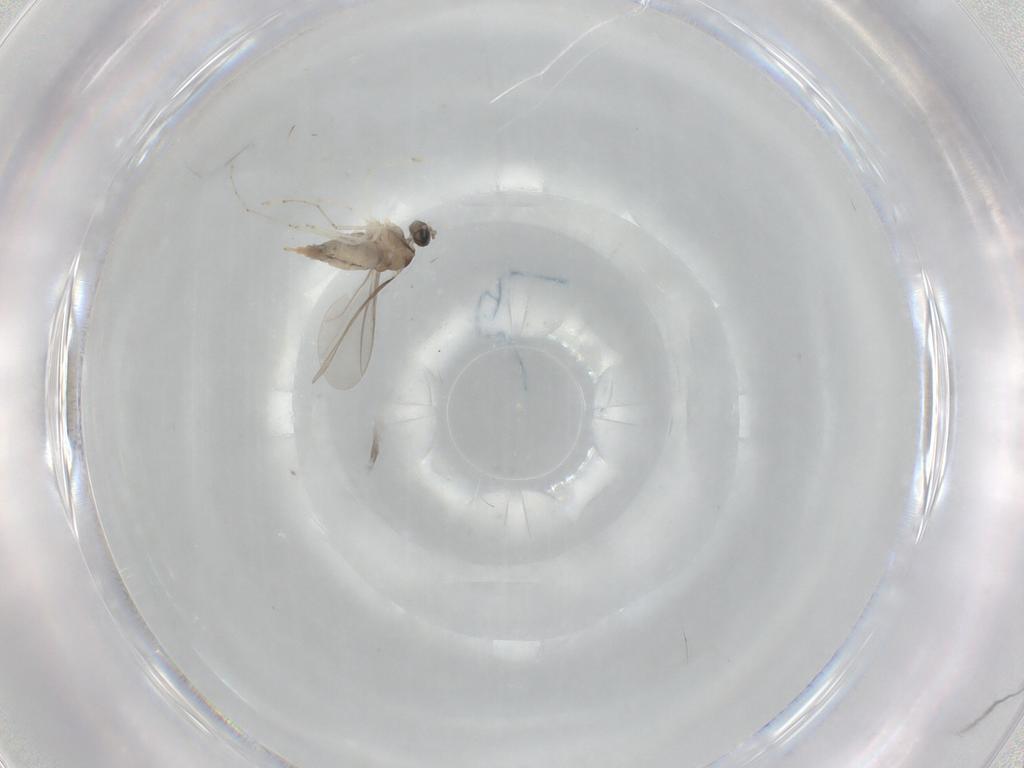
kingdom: Animalia
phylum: Arthropoda
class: Insecta
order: Diptera
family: Cecidomyiidae
